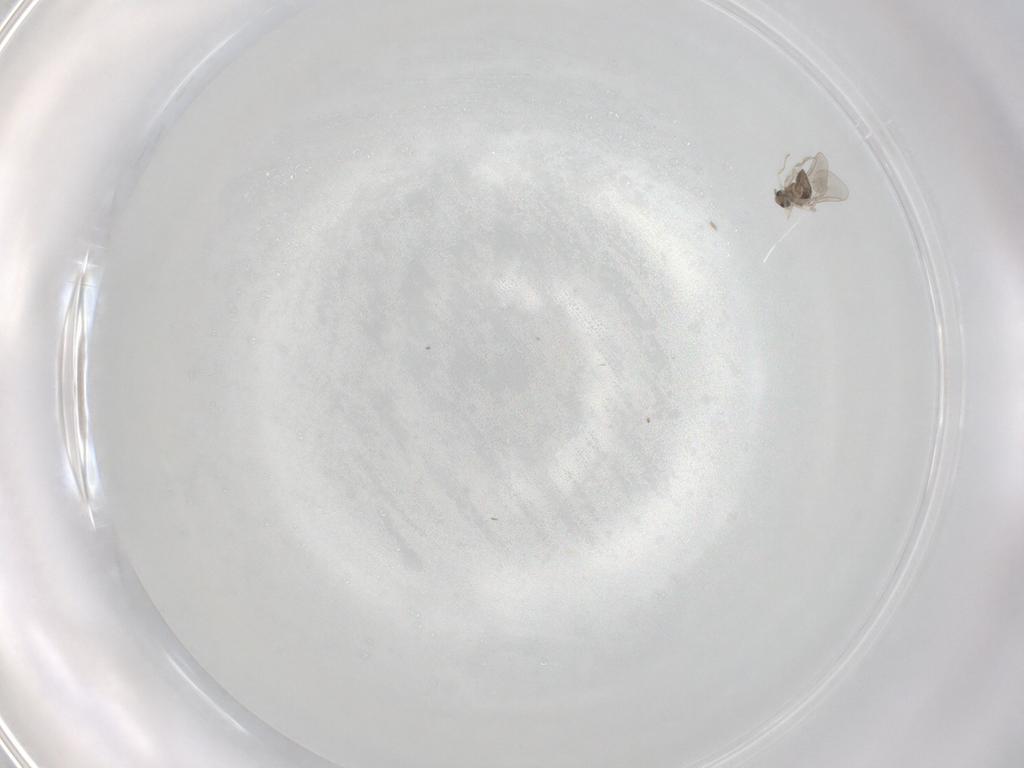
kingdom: Animalia
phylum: Arthropoda
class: Insecta
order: Diptera
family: Cecidomyiidae
